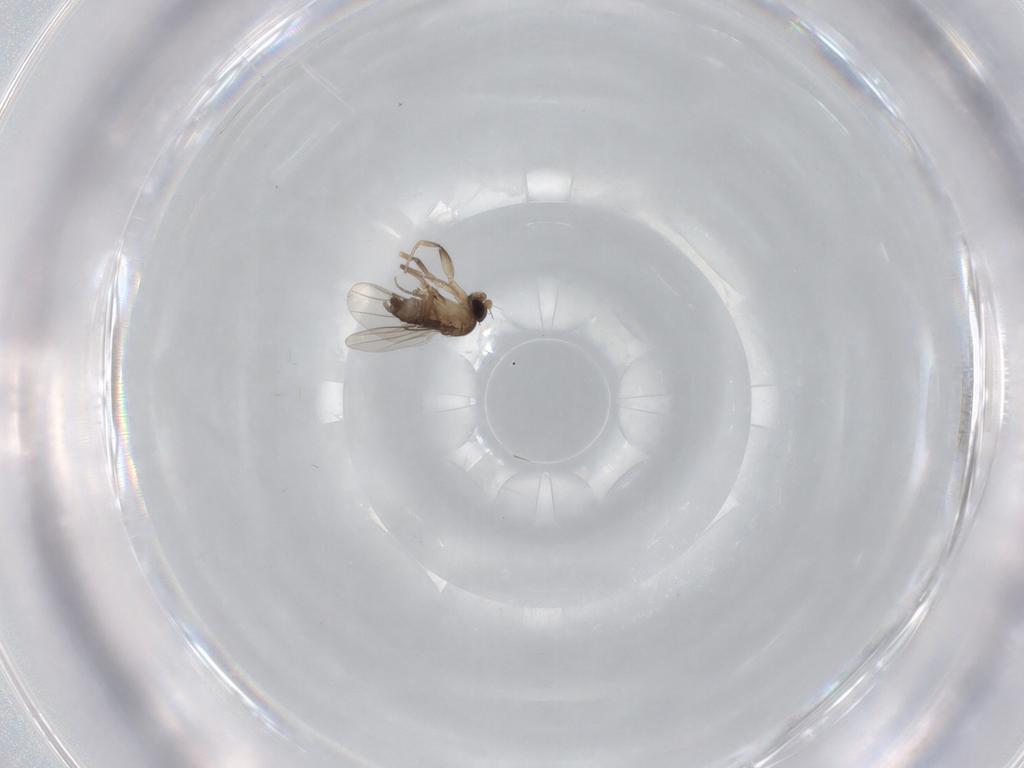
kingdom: Animalia
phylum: Arthropoda
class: Insecta
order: Diptera
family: Phoridae
